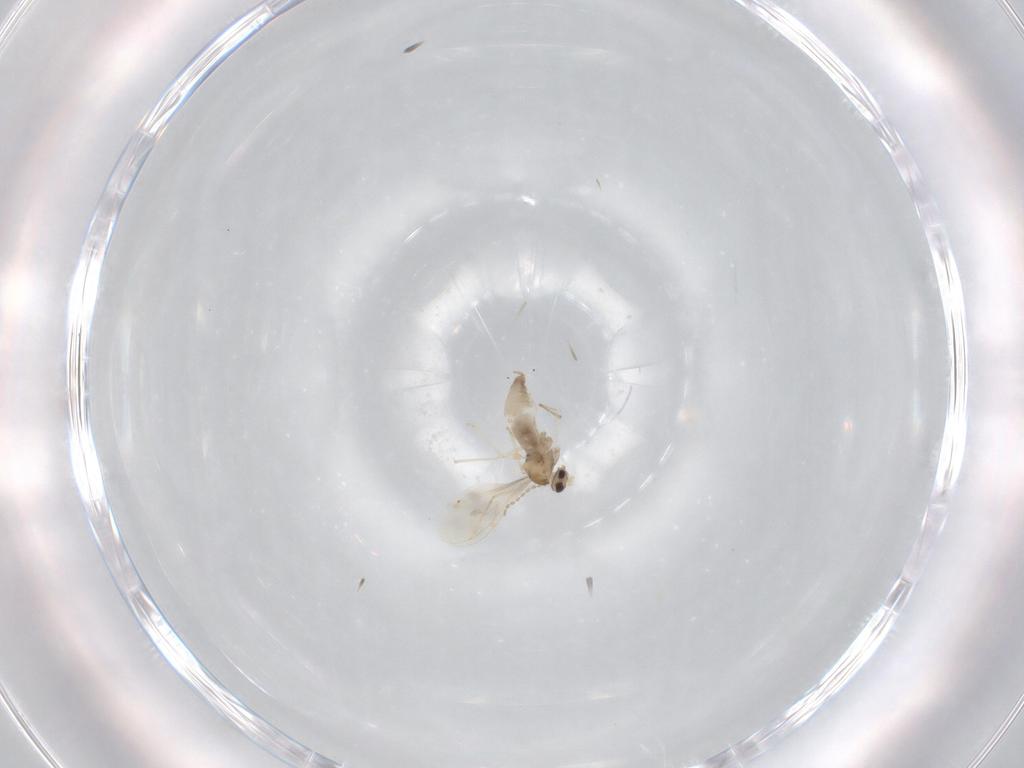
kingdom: Animalia
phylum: Arthropoda
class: Insecta
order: Diptera
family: Cecidomyiidae
